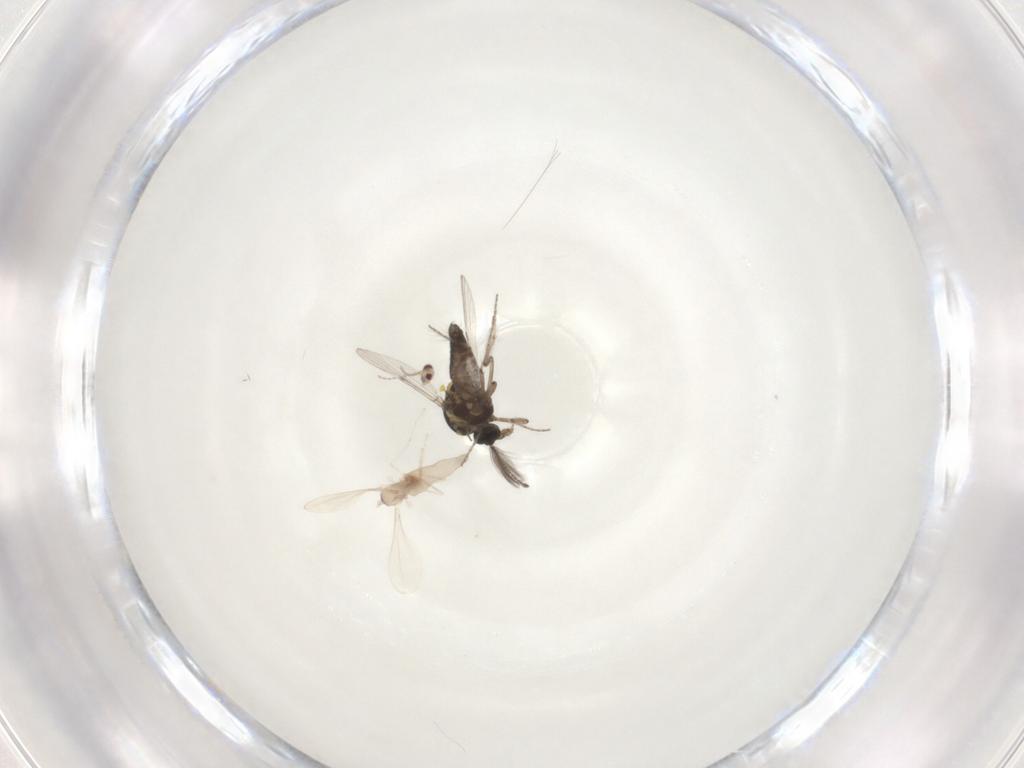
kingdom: Animalia
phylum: Arthropoda
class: Insecta
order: Diptera
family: Ceratopogonidae
